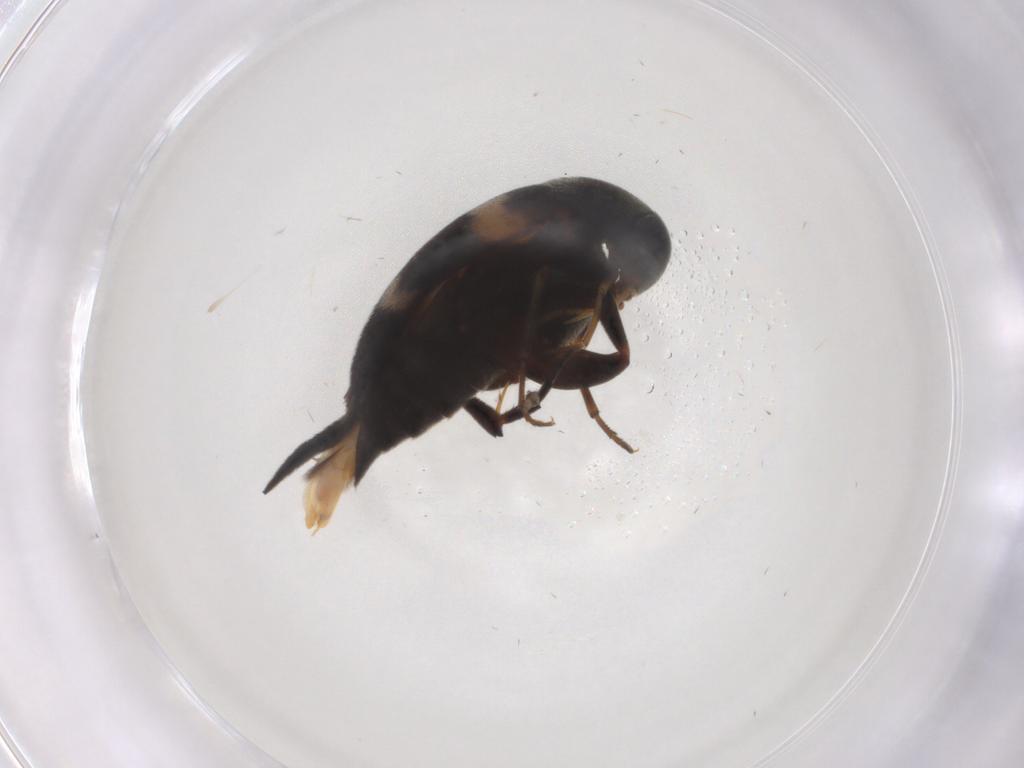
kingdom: Animalia
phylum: Arthropoda
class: Insecta
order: Coleoptera
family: Mordellidae
